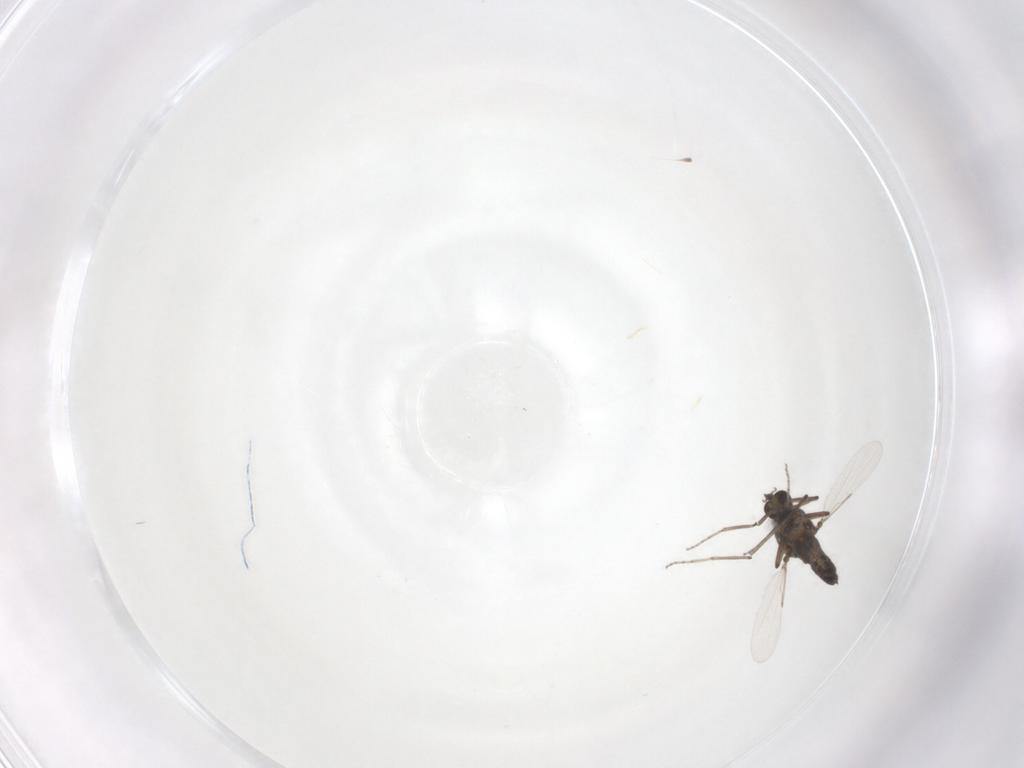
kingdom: Animalia
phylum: Arthropoda
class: Insecta
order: Diptera
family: Ceratopogonidae
